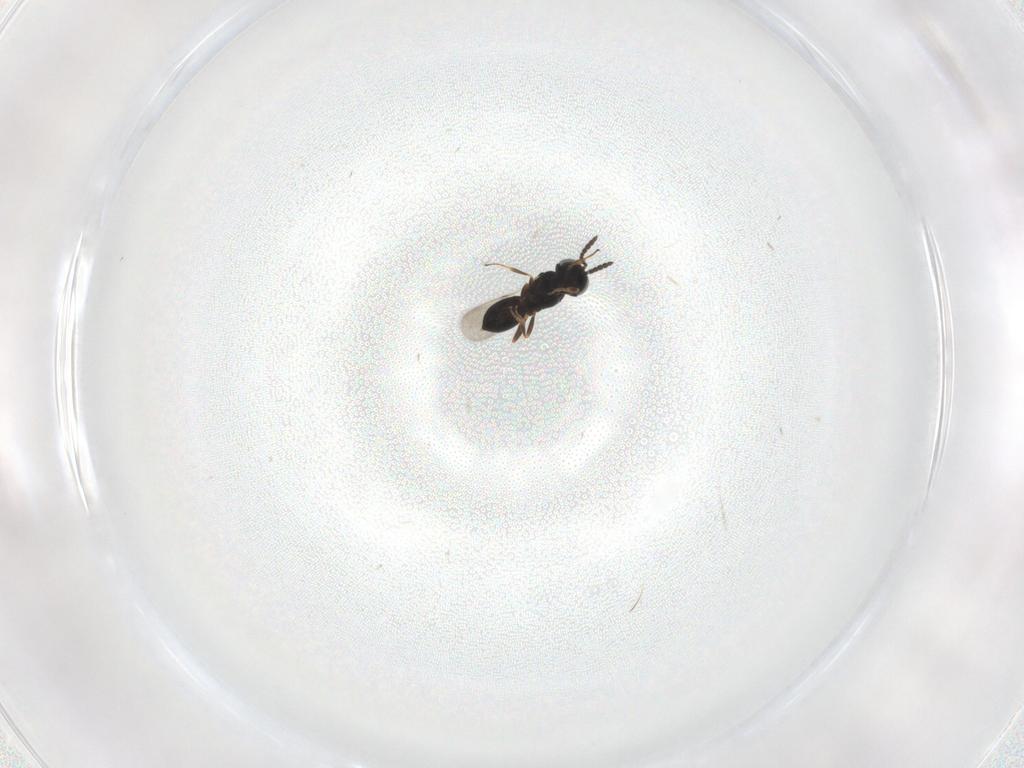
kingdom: Animalia
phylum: Arthropoda
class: Insecta
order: Hymenoptera
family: Scelionidae
